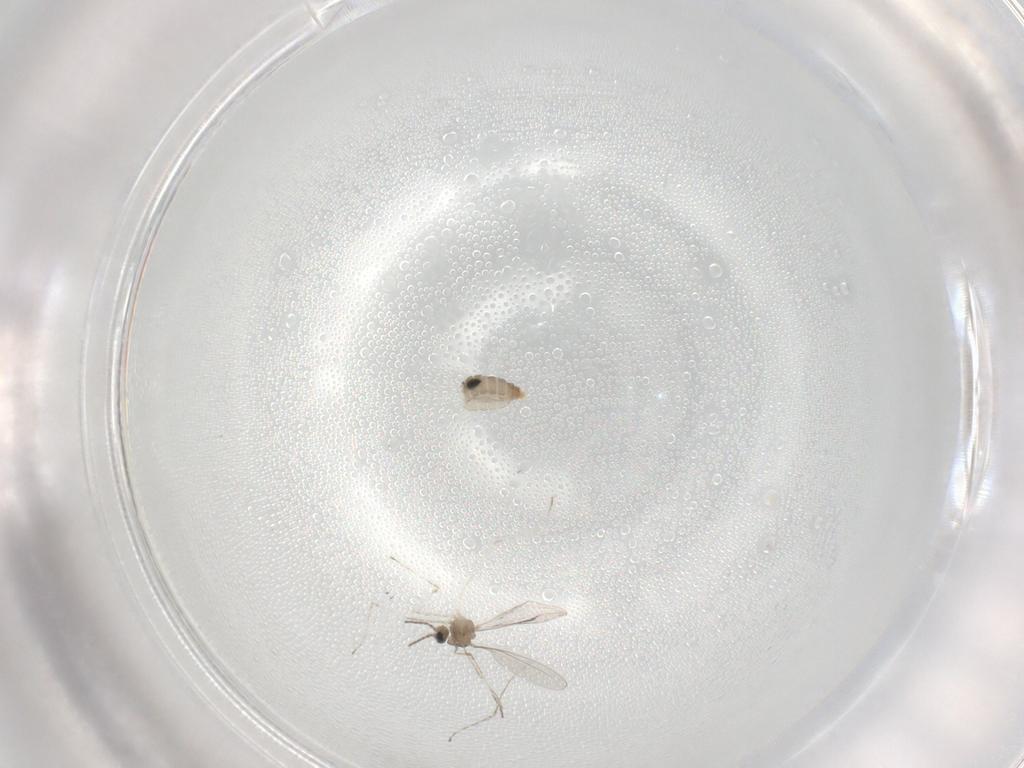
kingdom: Animalia
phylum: Arthropoda
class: Insecta
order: Diptera
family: Cecidomyiidae
